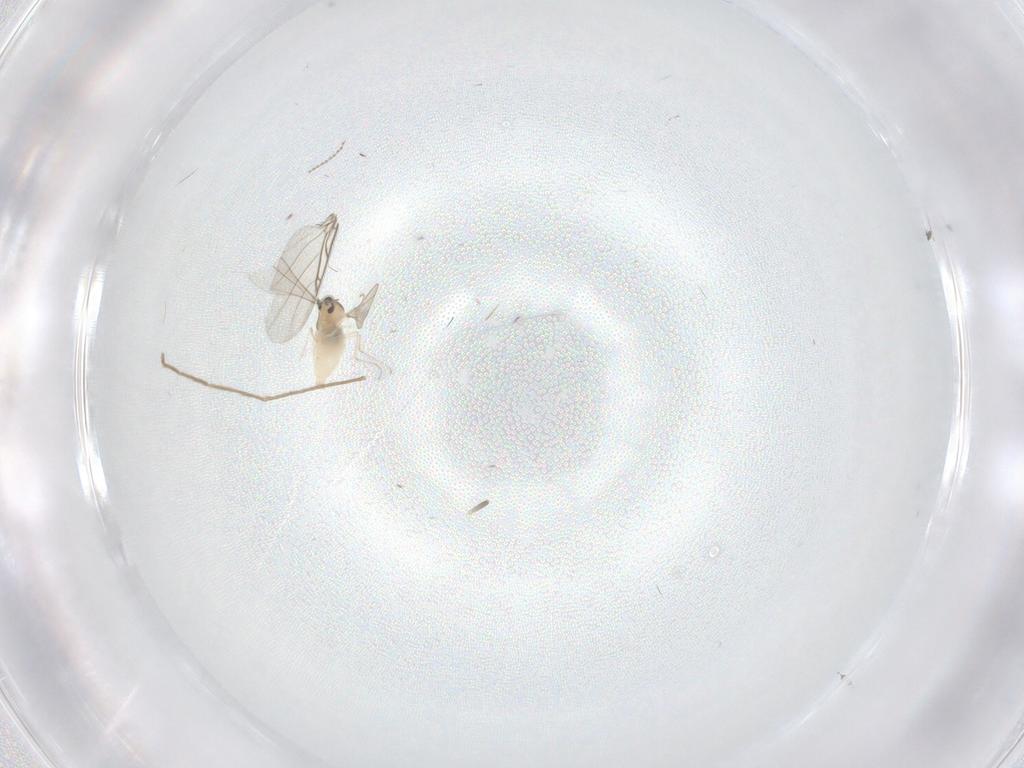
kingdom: Animalia
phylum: Arthropoda
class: Insecta
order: Diptera
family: Cecidomyiidae
